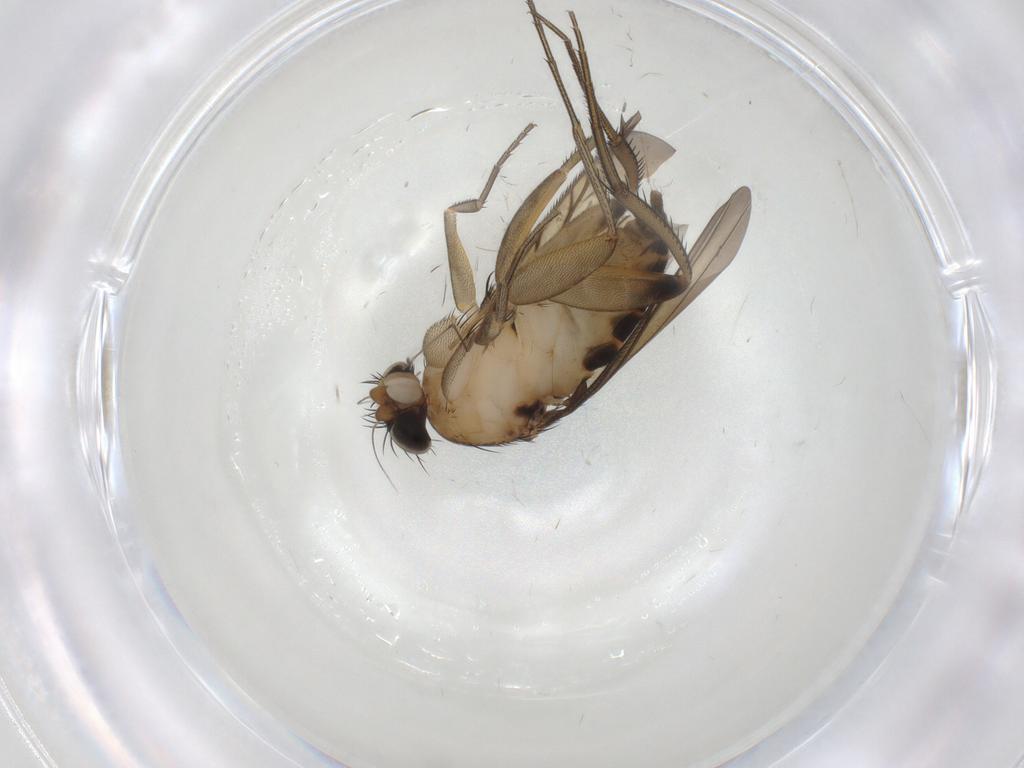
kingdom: Animalia
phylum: Arthropoda
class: Insecta
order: Diptera
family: Limoniidae
